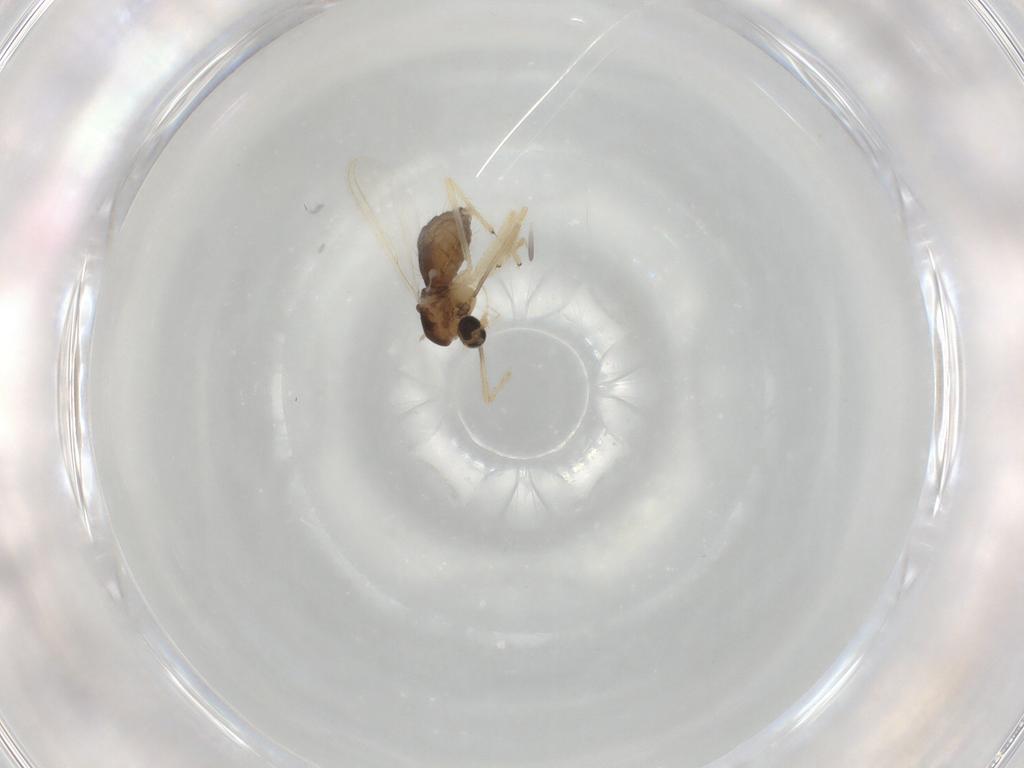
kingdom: Animalia
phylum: Arthropoda
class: Insecta
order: Diptera
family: Chironomidae
